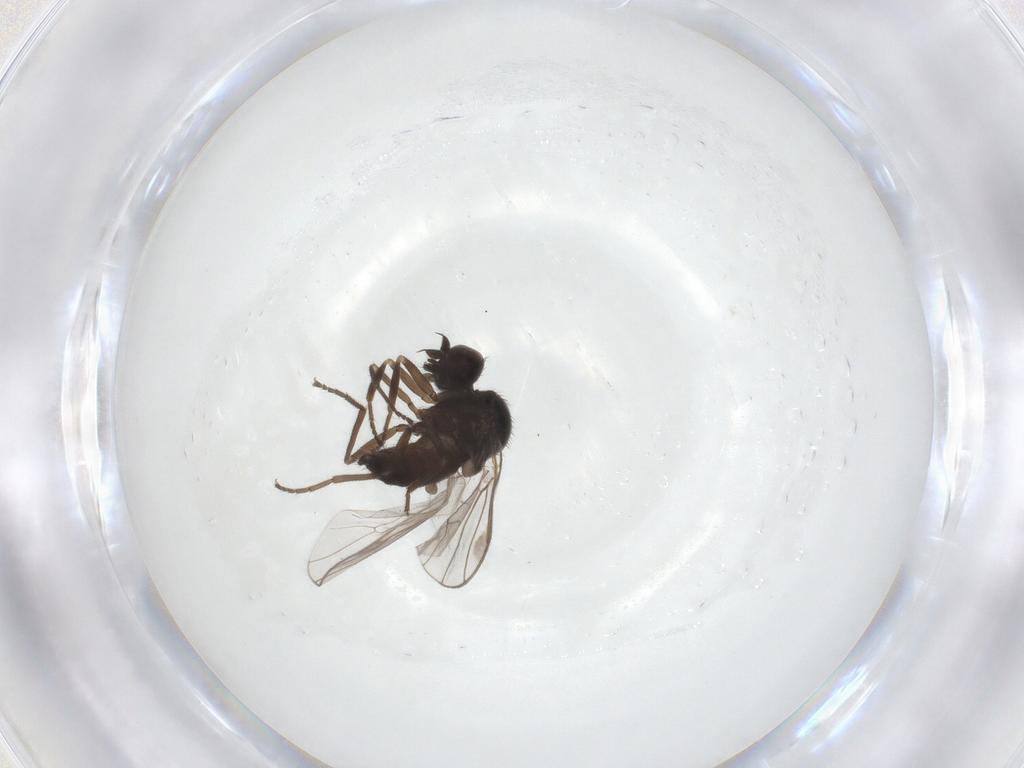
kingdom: Animalia
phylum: Arthropoda
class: Insecta
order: Diptera
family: Hybotidae
